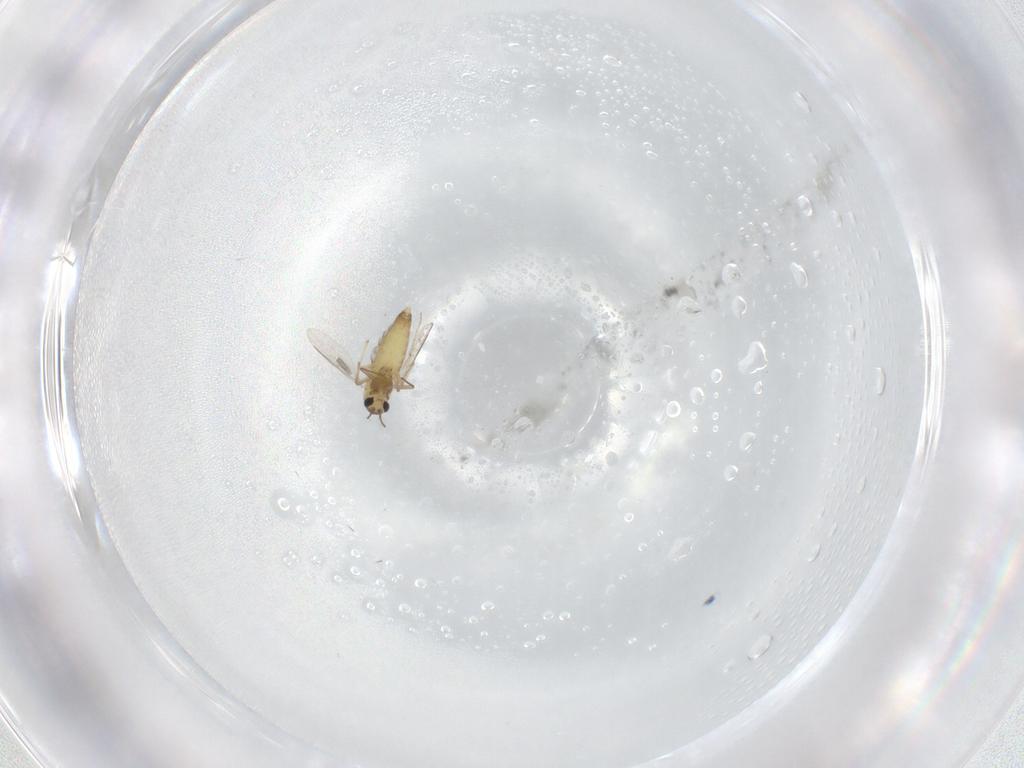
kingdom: Animalia
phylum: Arthropoda
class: Insecta
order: Diptera
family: Chironomidae
